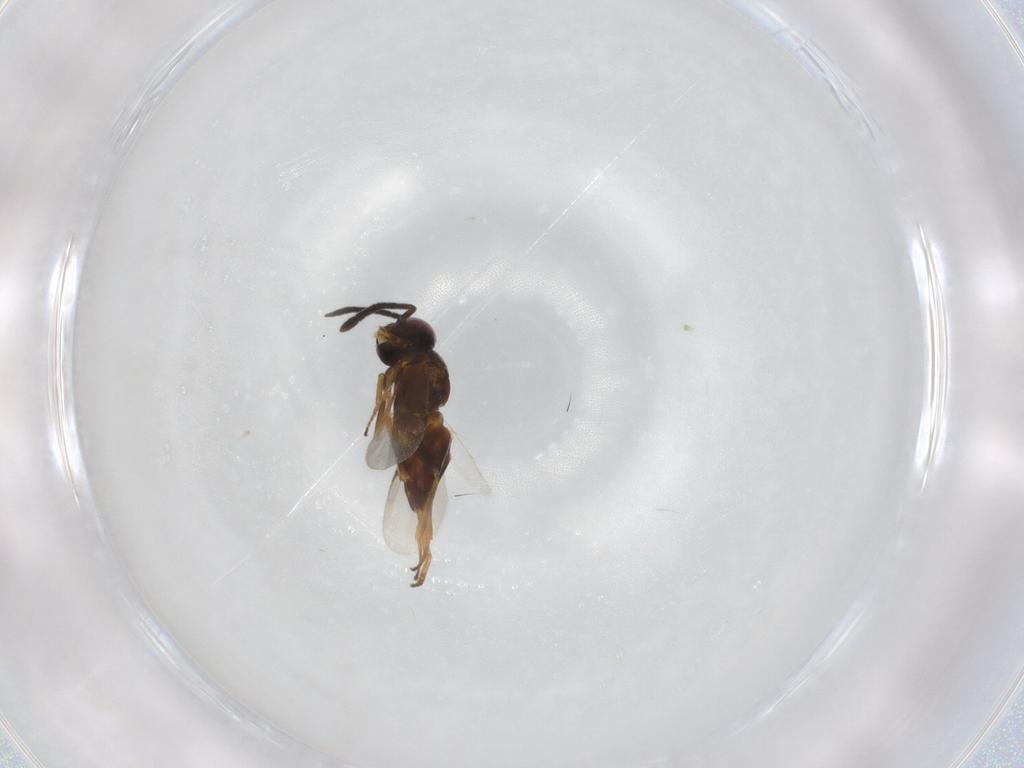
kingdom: Animalia
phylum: Arthropoda
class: Insecta
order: Hymenoptera
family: Encyrtidae
